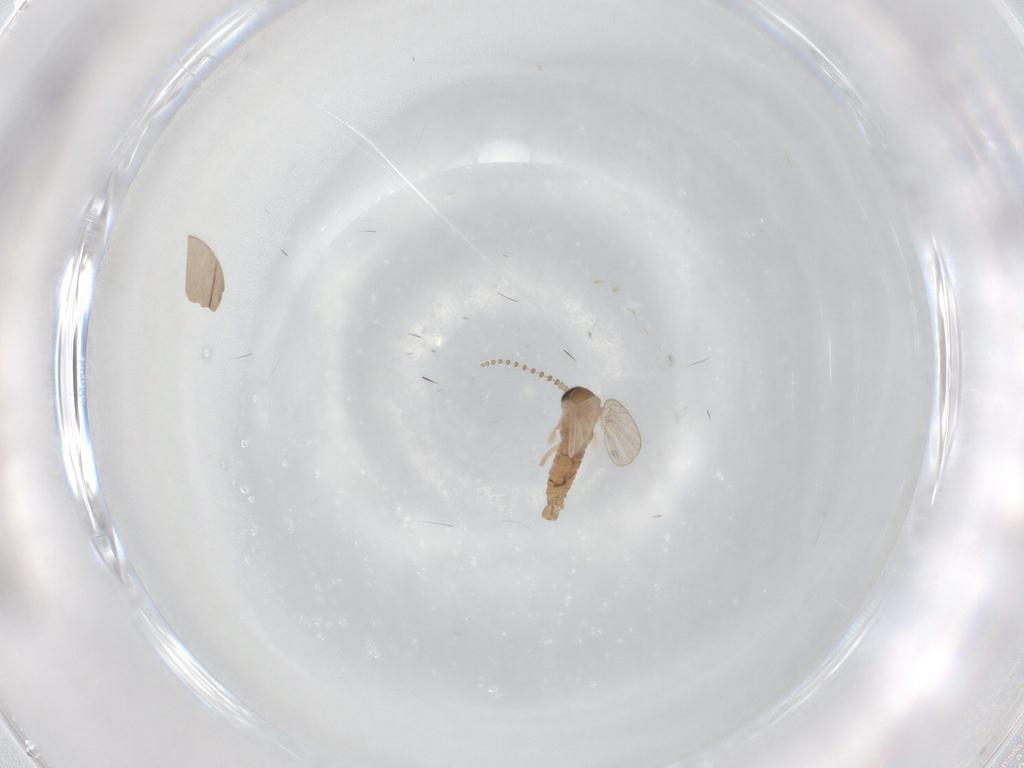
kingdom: Animalia
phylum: Arthropoda
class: Insecta
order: Diptera
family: Psychodidae
